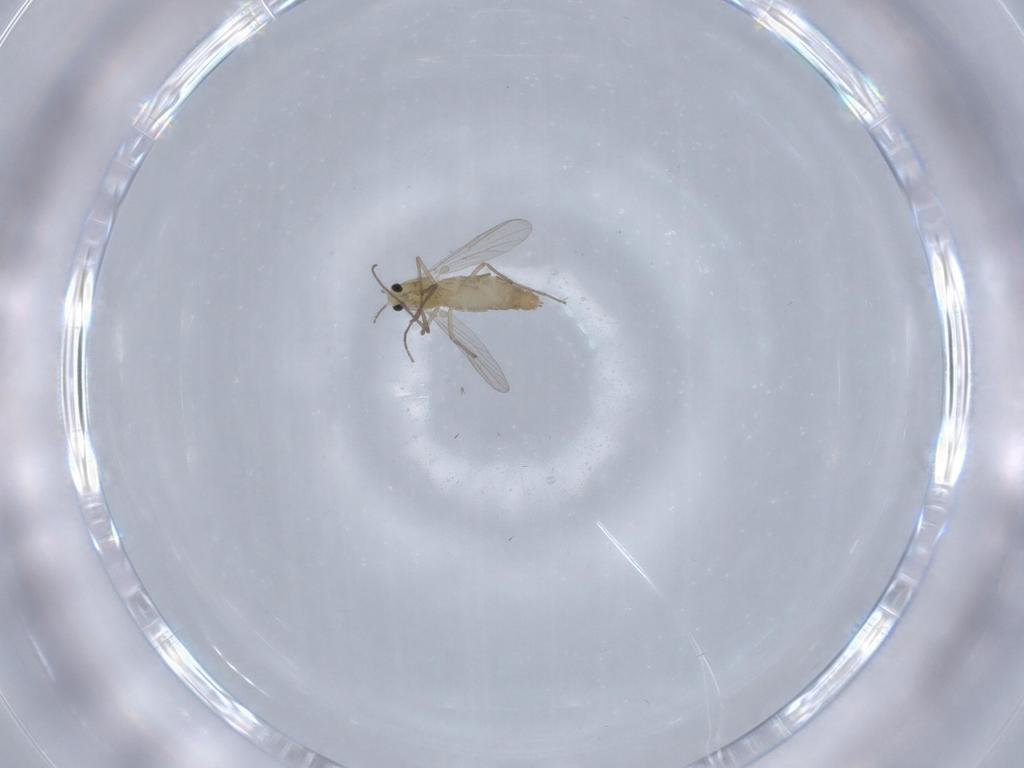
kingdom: Animalia
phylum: Arthropoda
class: Insecta
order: Diptera
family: Chironomidae
